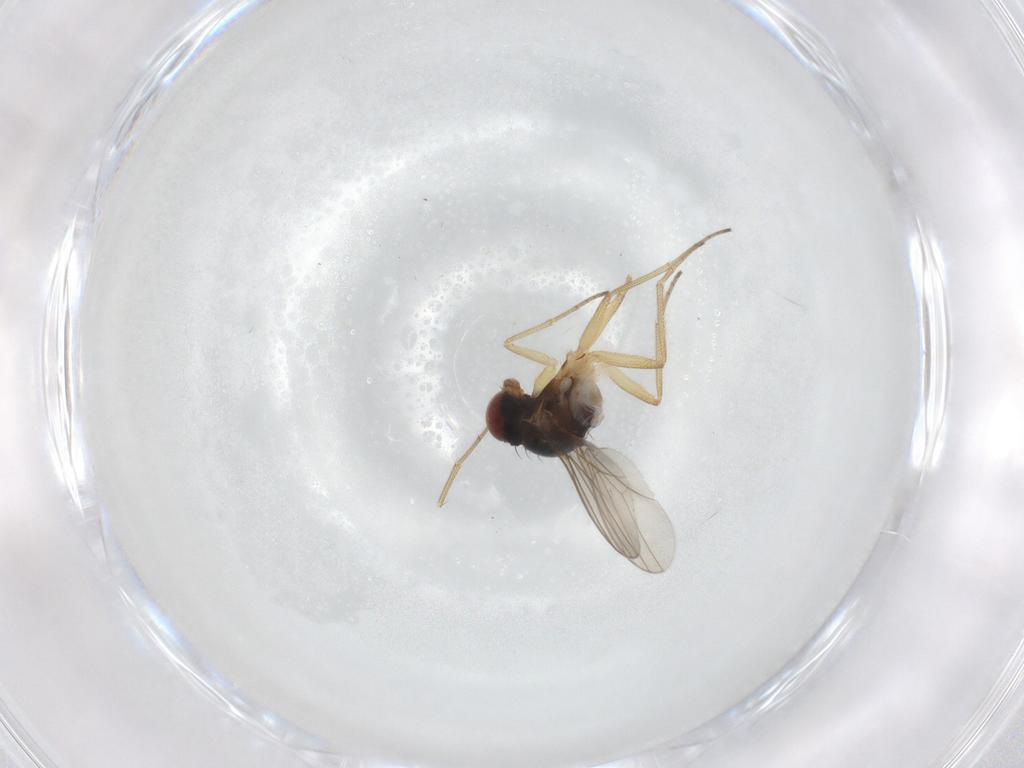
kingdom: Animalia
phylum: Arthropoda
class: Insecta
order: Diptera
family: Dolichopodidae
